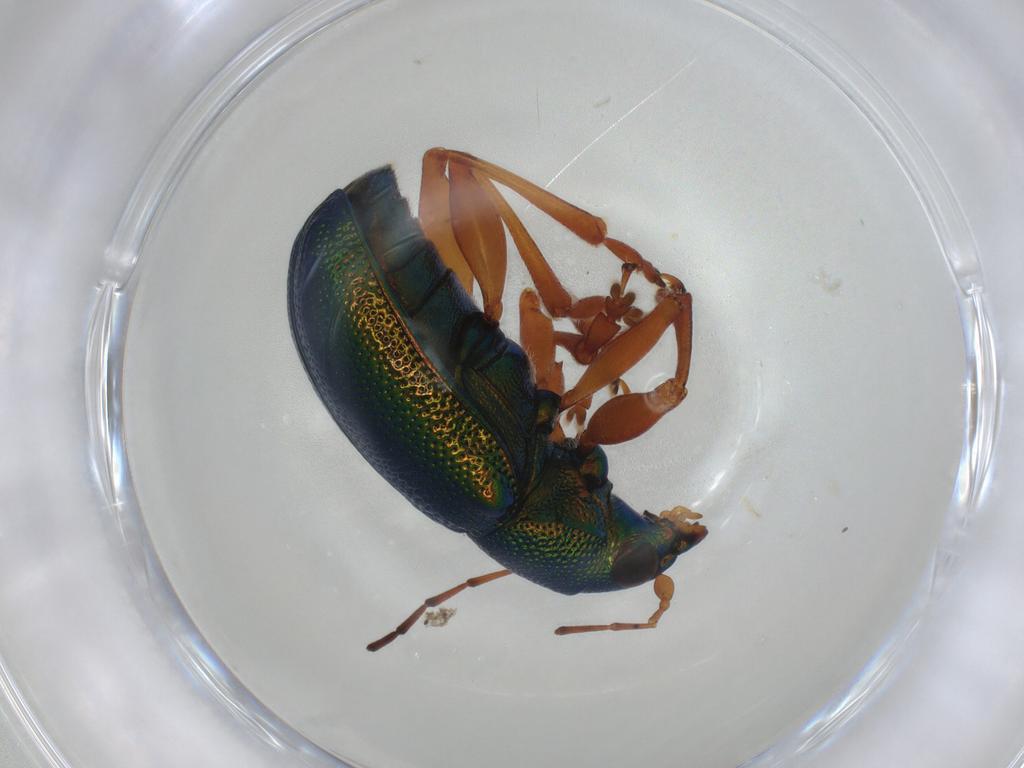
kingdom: Animalia
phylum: Arthropoda
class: Insecta
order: Coleoptera
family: Chrysomelidae
